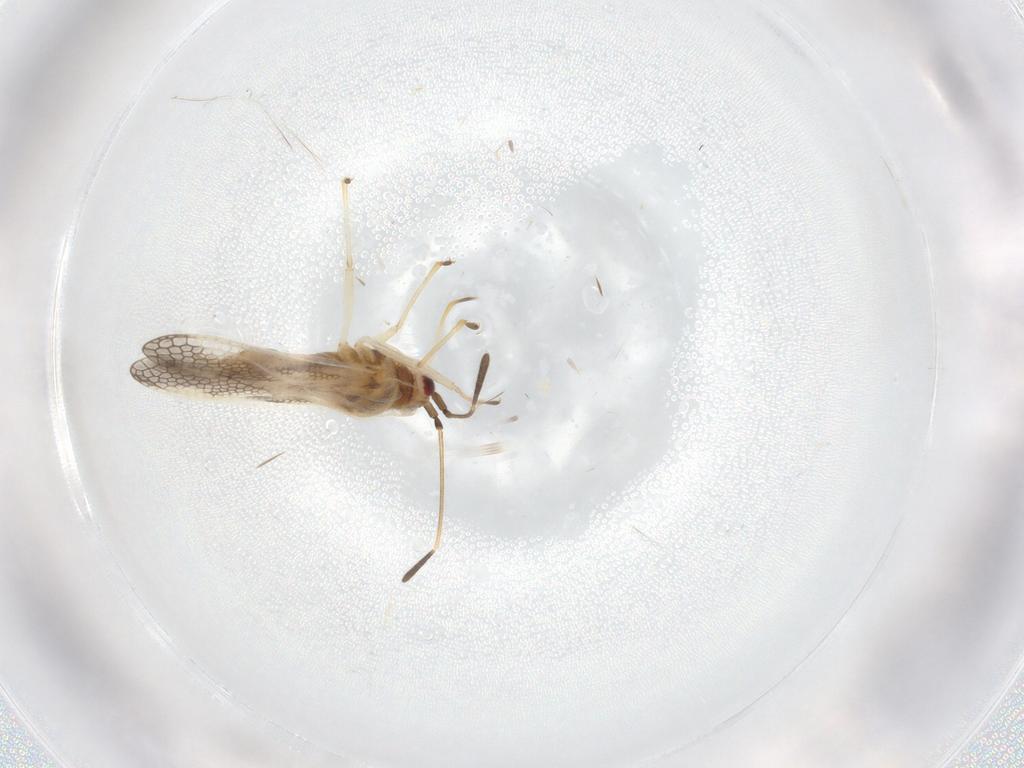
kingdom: Animalia
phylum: Arthropoda
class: Insecta
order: Hemiptera
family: Tingidae
